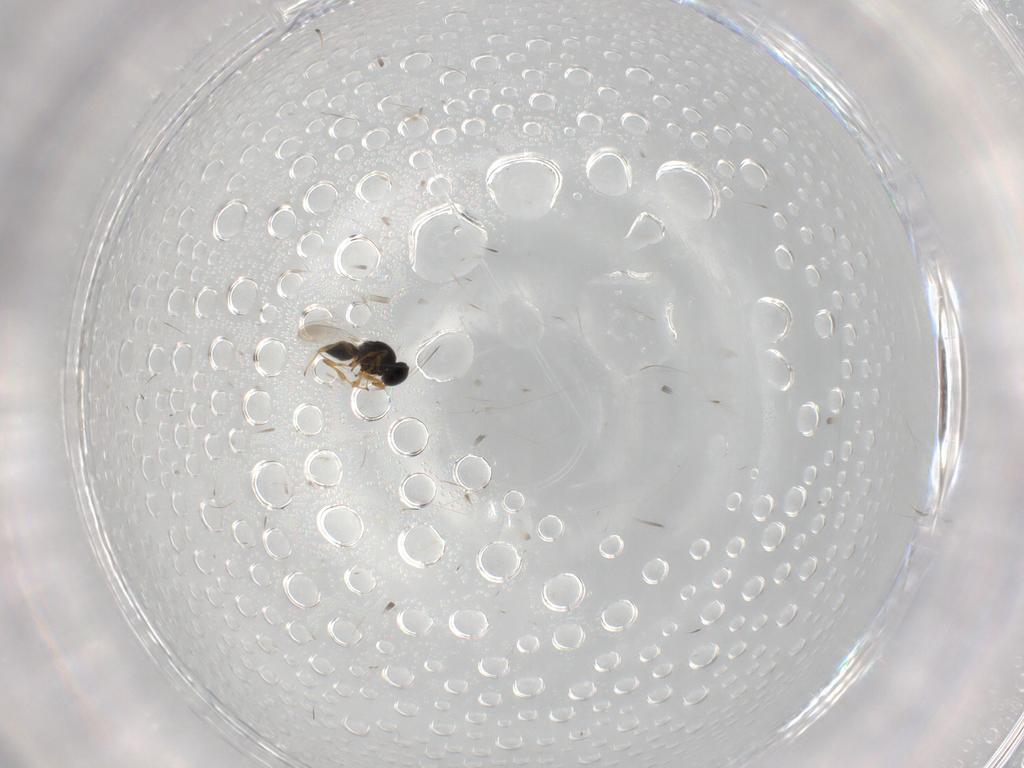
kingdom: Animalia
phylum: Arthropoda
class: Insecta
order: Hymenoptera
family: Platygastridae
